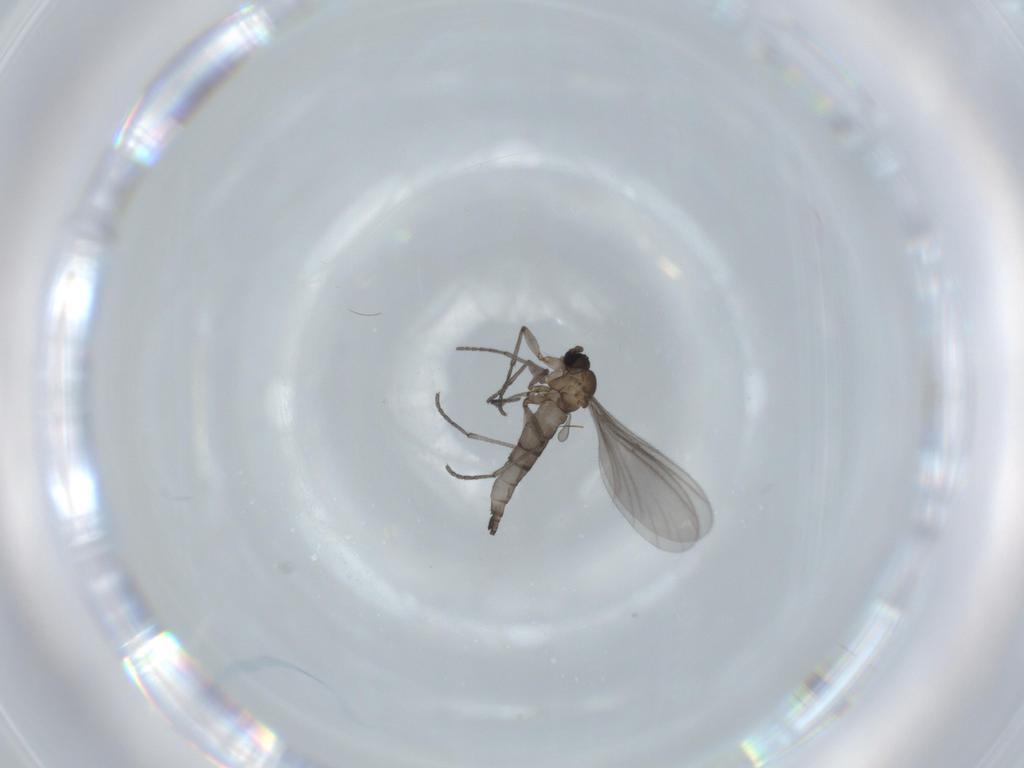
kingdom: Animalia
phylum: Arthropoda
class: Insecta
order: Diptera
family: Sciaridae
